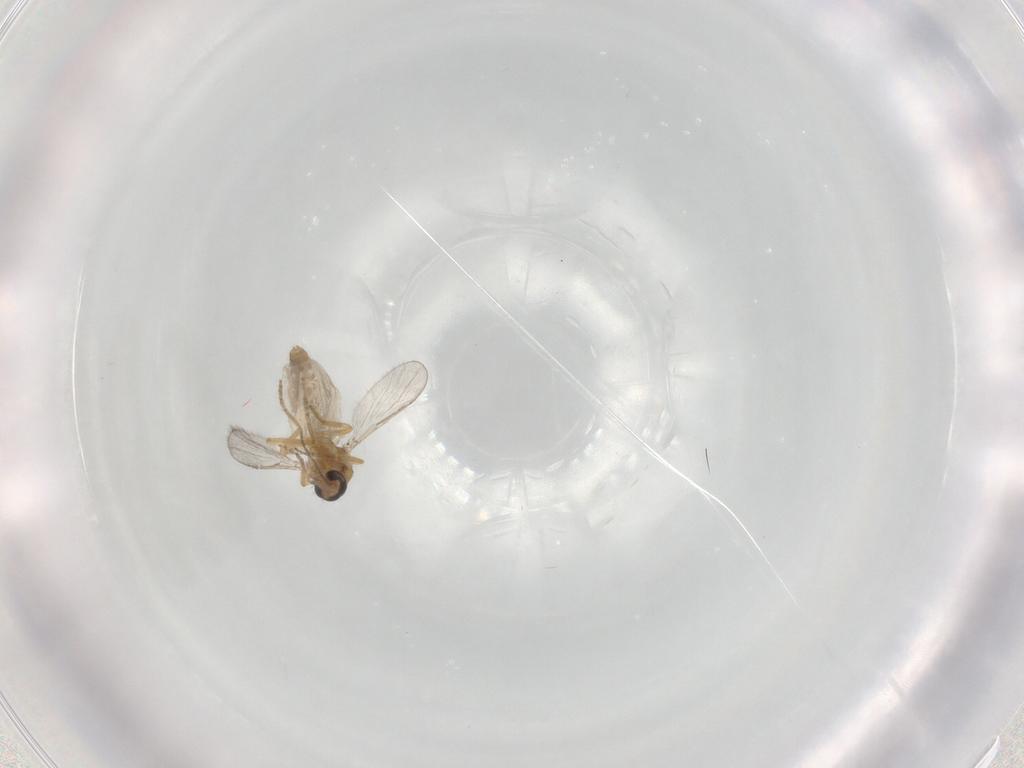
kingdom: Animalia
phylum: Arthropoda
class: Insecta
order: Diptera
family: Ceratopogonidae
